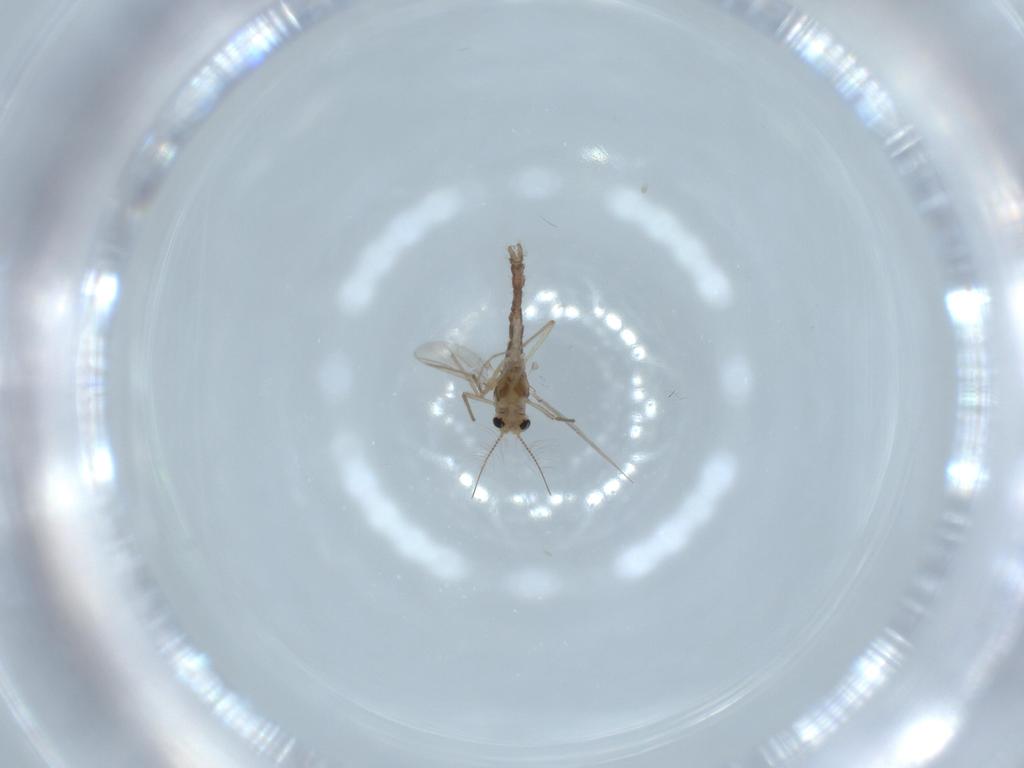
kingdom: Animalia
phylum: Arthropoda
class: Insecta
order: Diptera
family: Chironomidae
